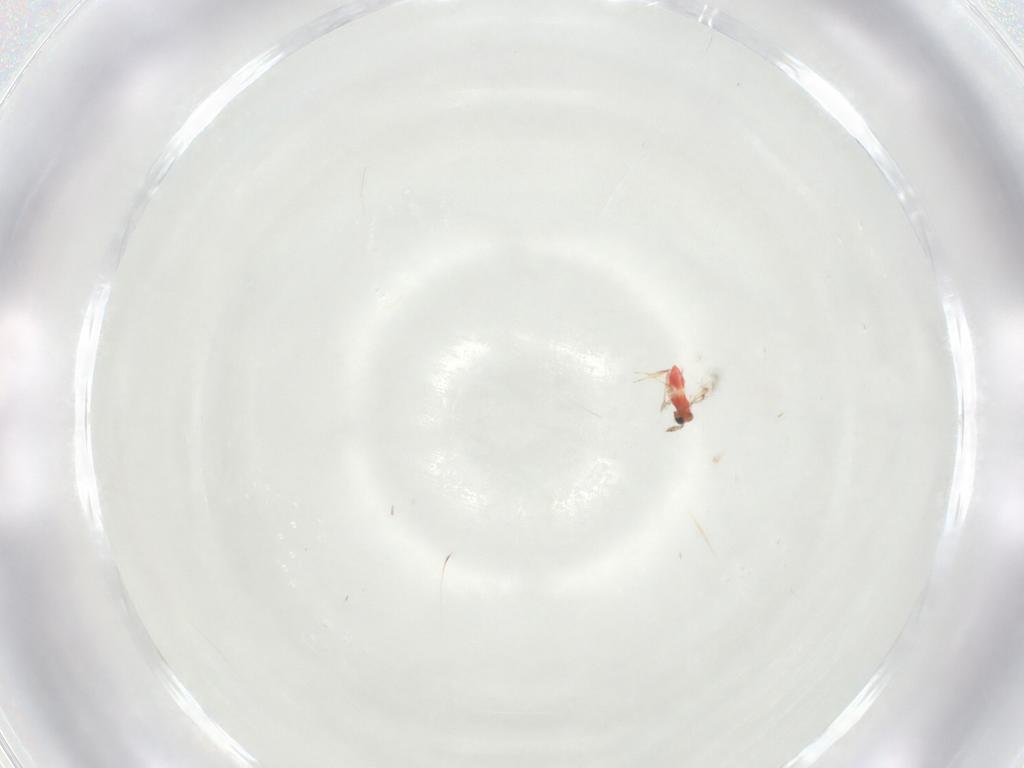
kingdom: Animalia
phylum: Arthropoda
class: Insecta
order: Hymenoptera
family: Trichogrammatidae
